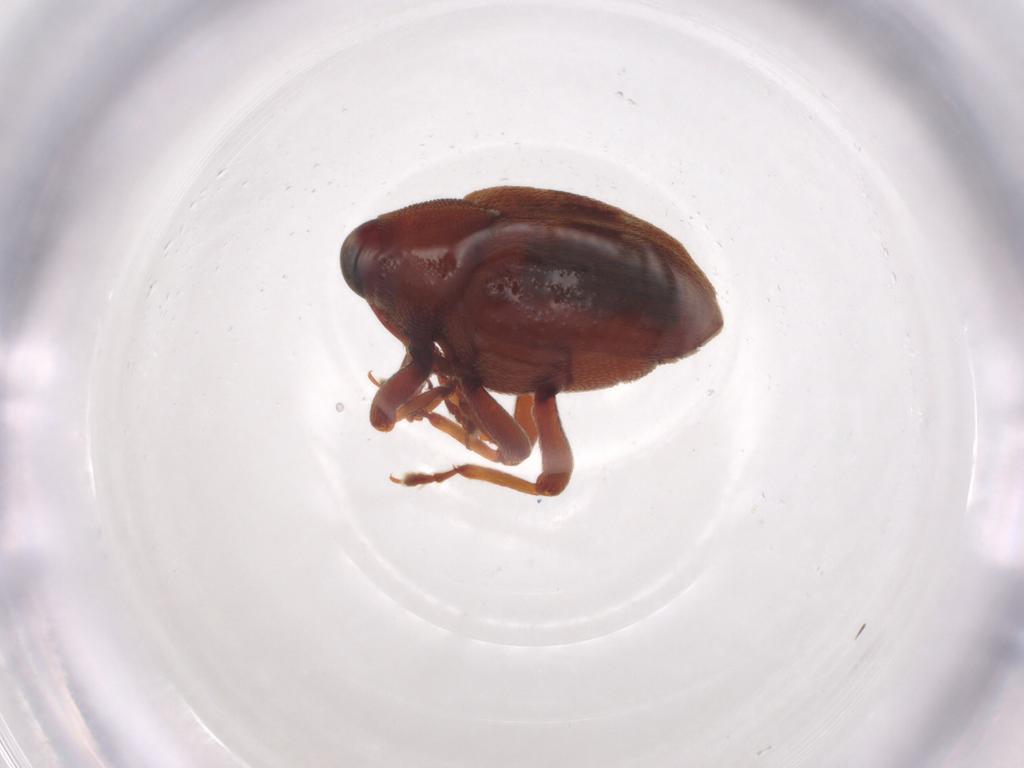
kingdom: Animalia
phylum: Arthropoda
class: Insecta
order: Coleoptera
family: Curculionidae
